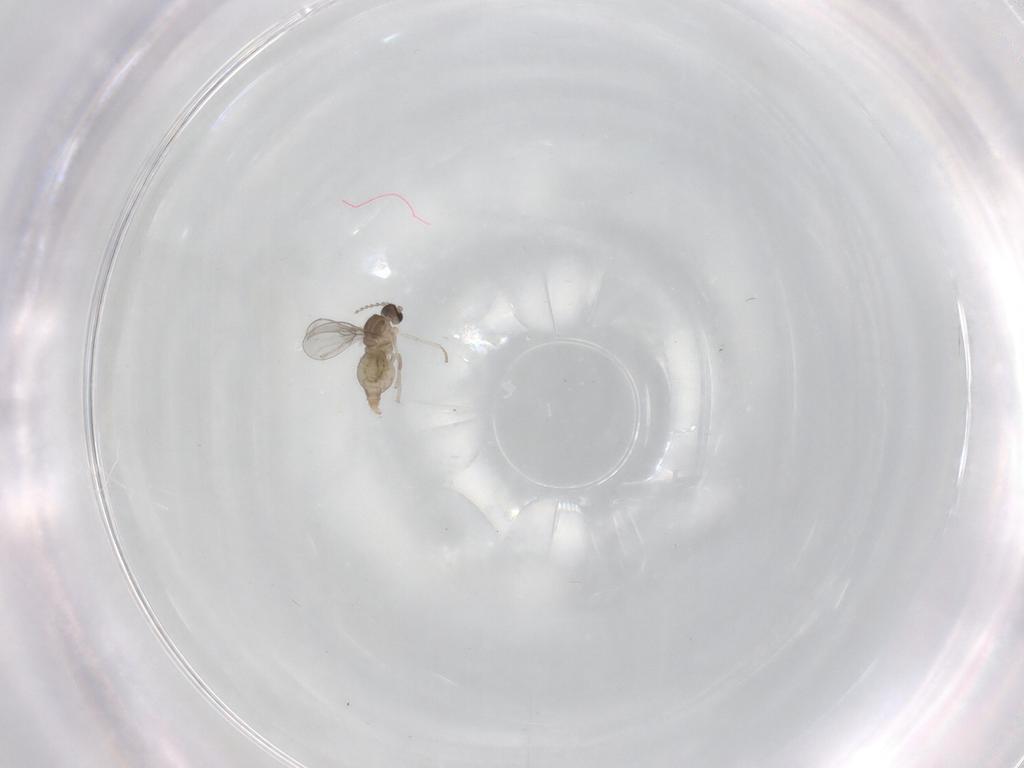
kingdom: Animalia
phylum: Arthropoda
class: Insecta
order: Diptera
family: Cecidomyiidae
